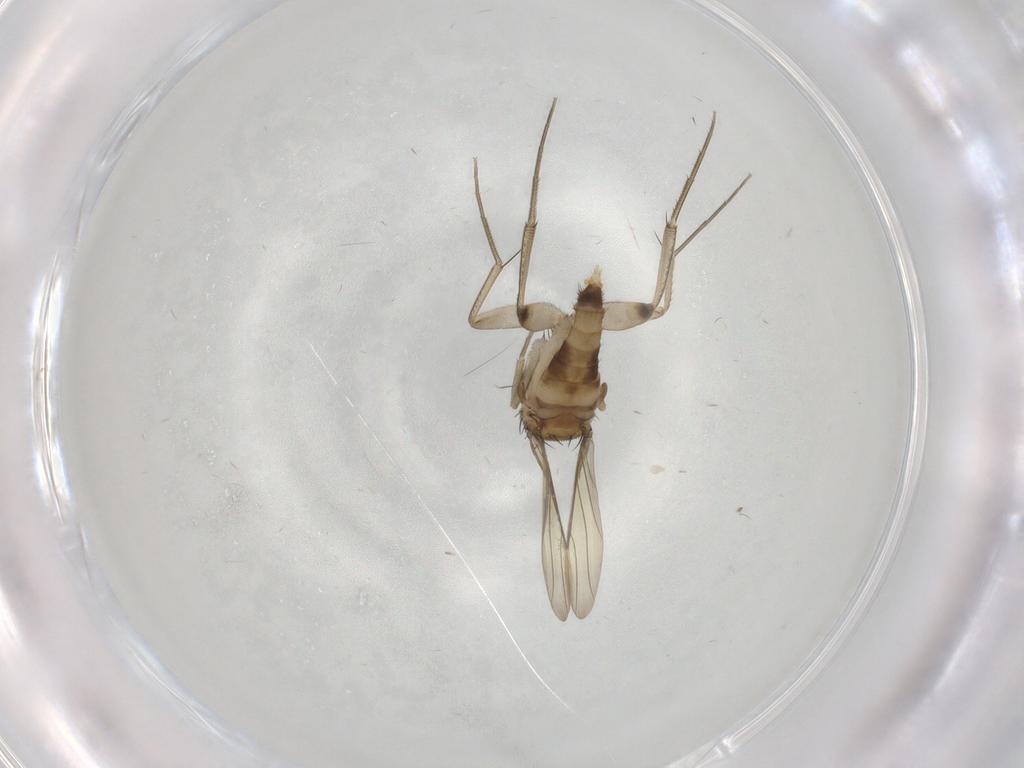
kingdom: Animalia
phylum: Arthropoda
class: Insecta
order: Diptera
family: Phoridae
